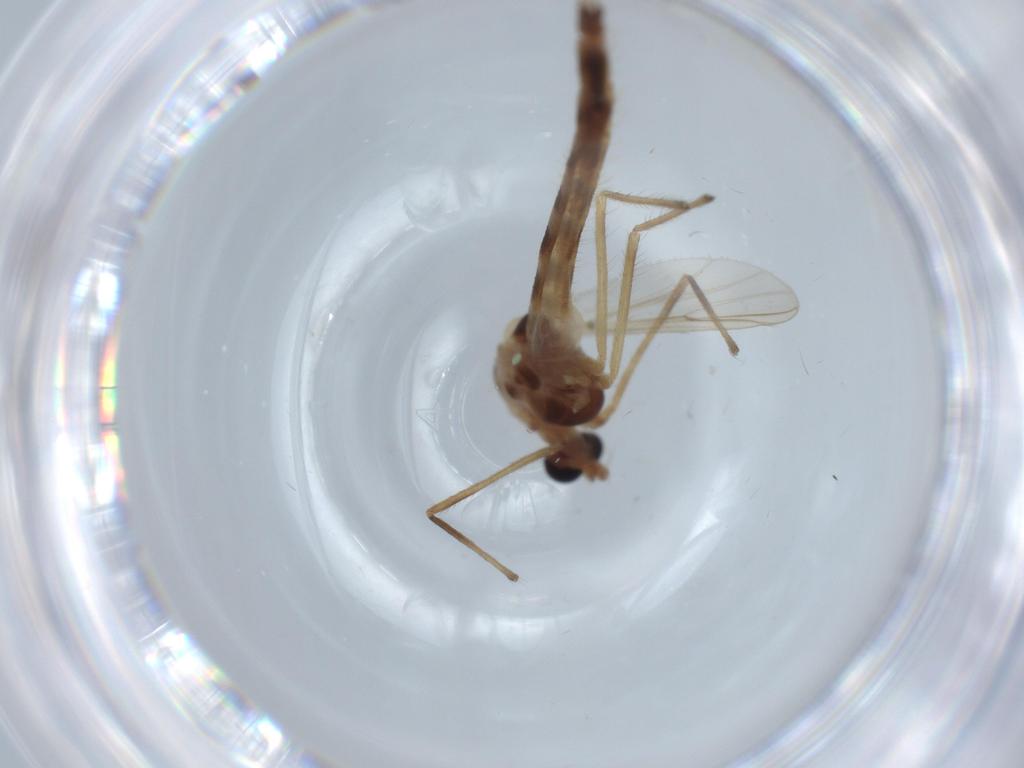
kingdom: Animalia
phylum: Arthropoda
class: Insecta
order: Diptera
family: Chironomidae
